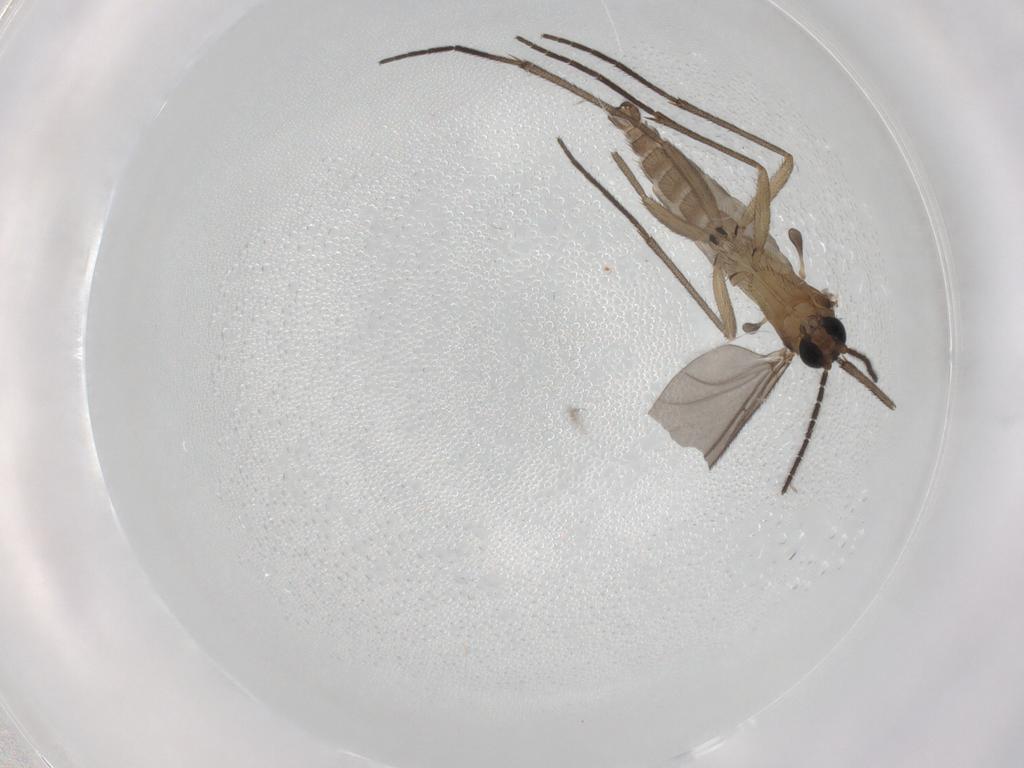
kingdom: Animalia
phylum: Arthropoda
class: Insecta
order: Diptera
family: Sciaridae
